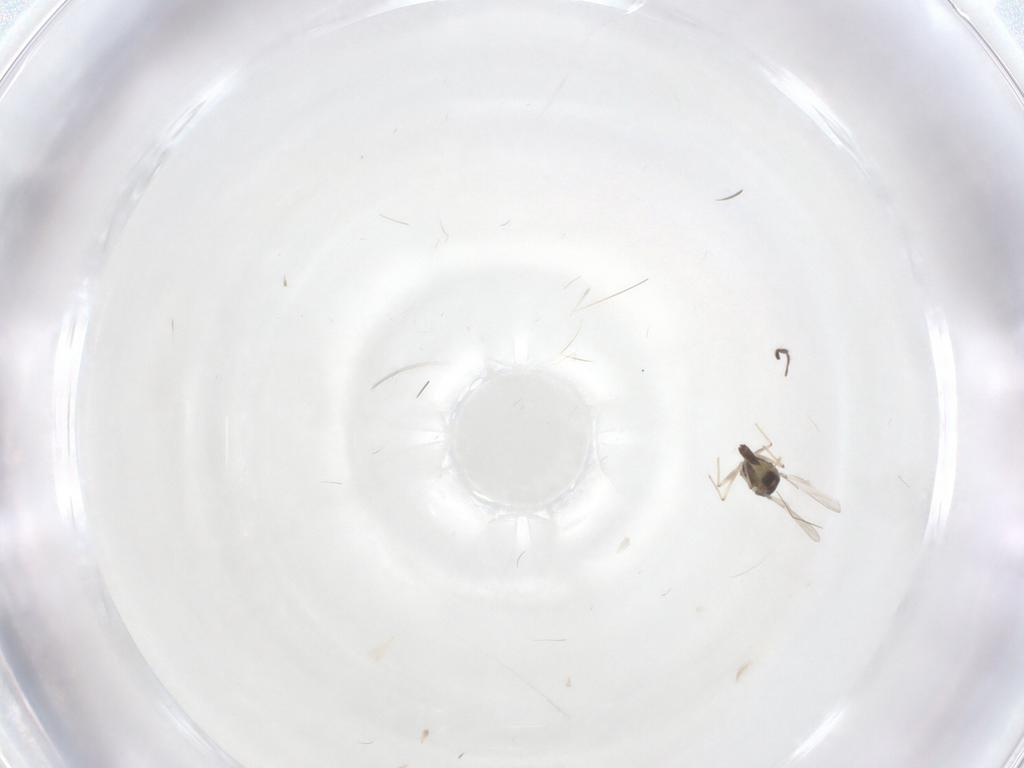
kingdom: Animalia
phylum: Arthropoda
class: Insecta
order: Diptera
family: Chironomidae
